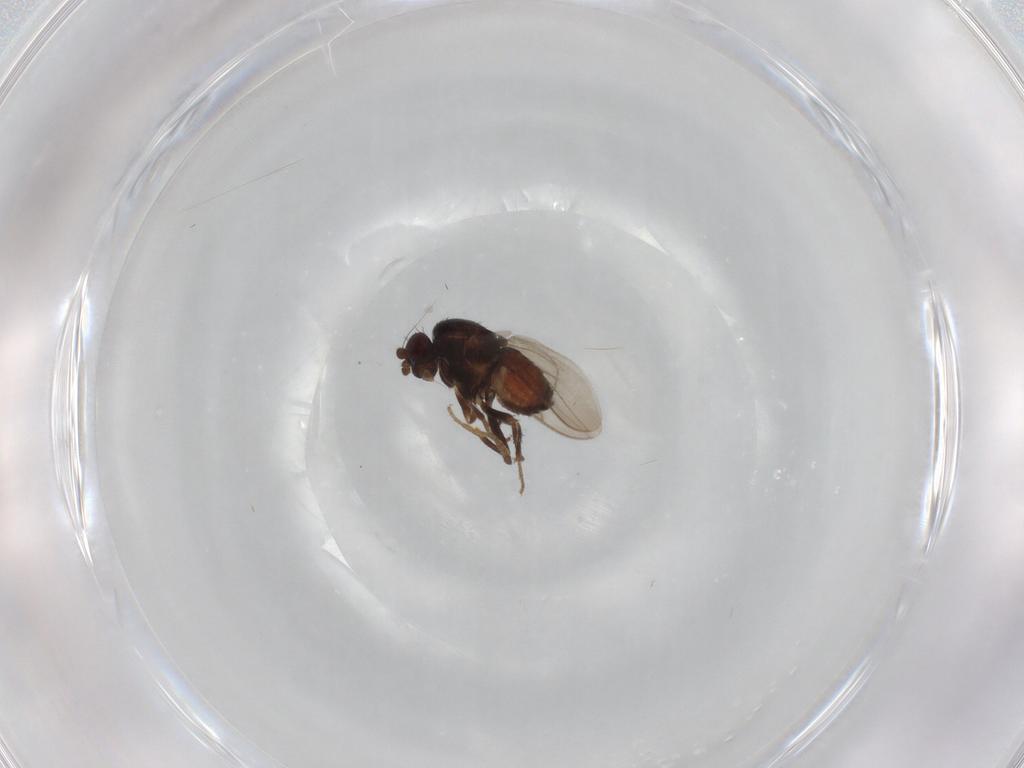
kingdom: Animalia
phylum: Arthropoda
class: Insecta
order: Diptera
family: Sphaeroceridae
